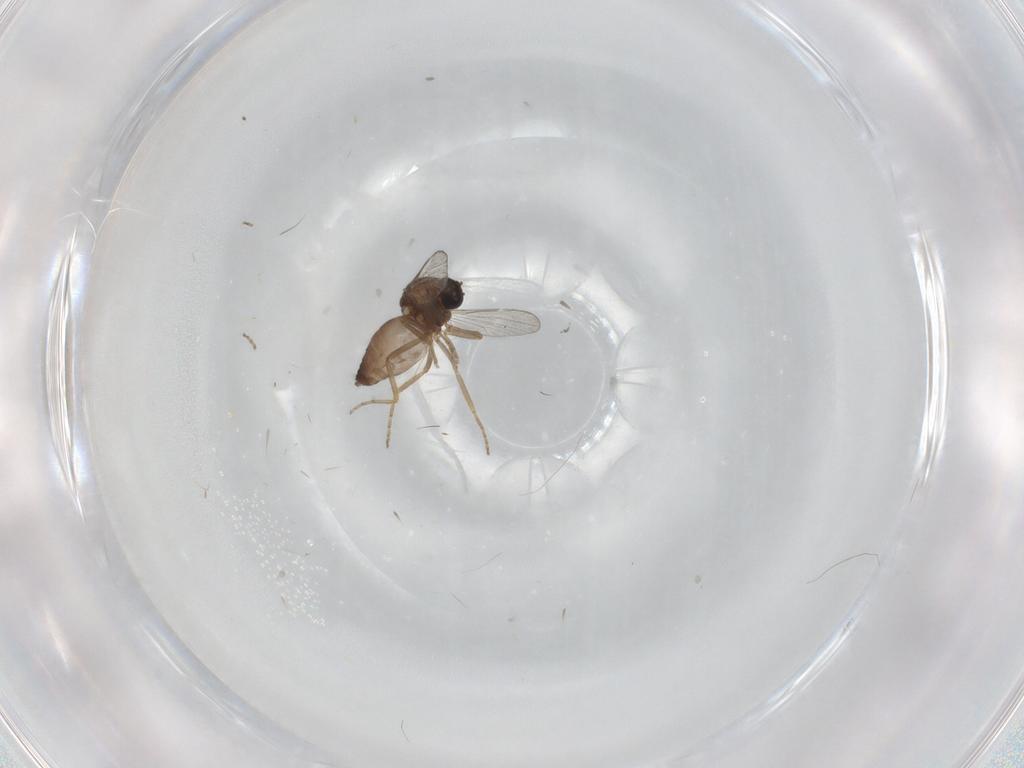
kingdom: Animalia
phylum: Arthropoda
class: Insecta
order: Diptera
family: Ceratopogonidae
